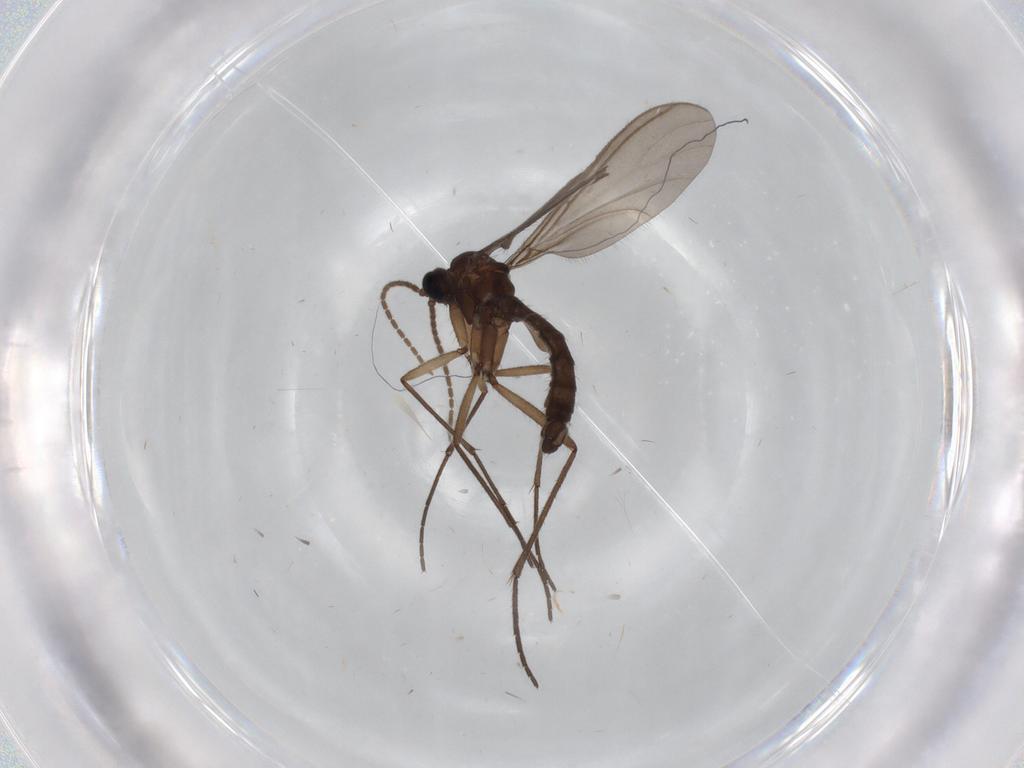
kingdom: Animalia
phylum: Arthropoda
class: Insecta
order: Diptera
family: Sciaridae
